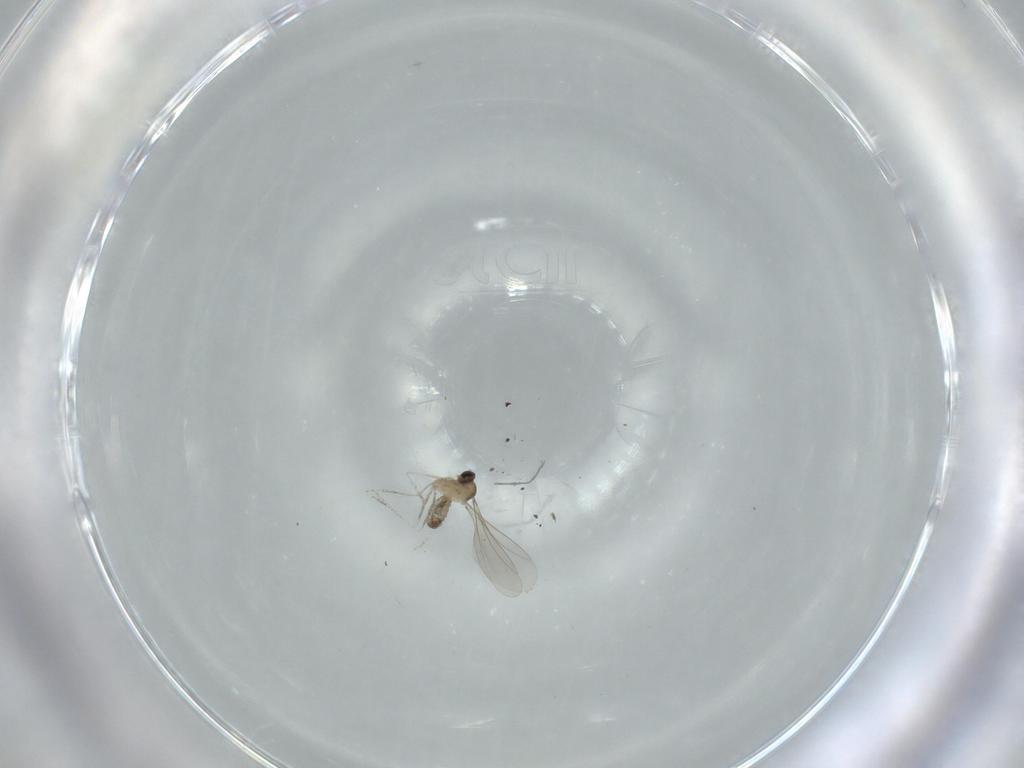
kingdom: Animalia
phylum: Arthropoda
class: Insecta
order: Diptera
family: Cecidomyiidae
